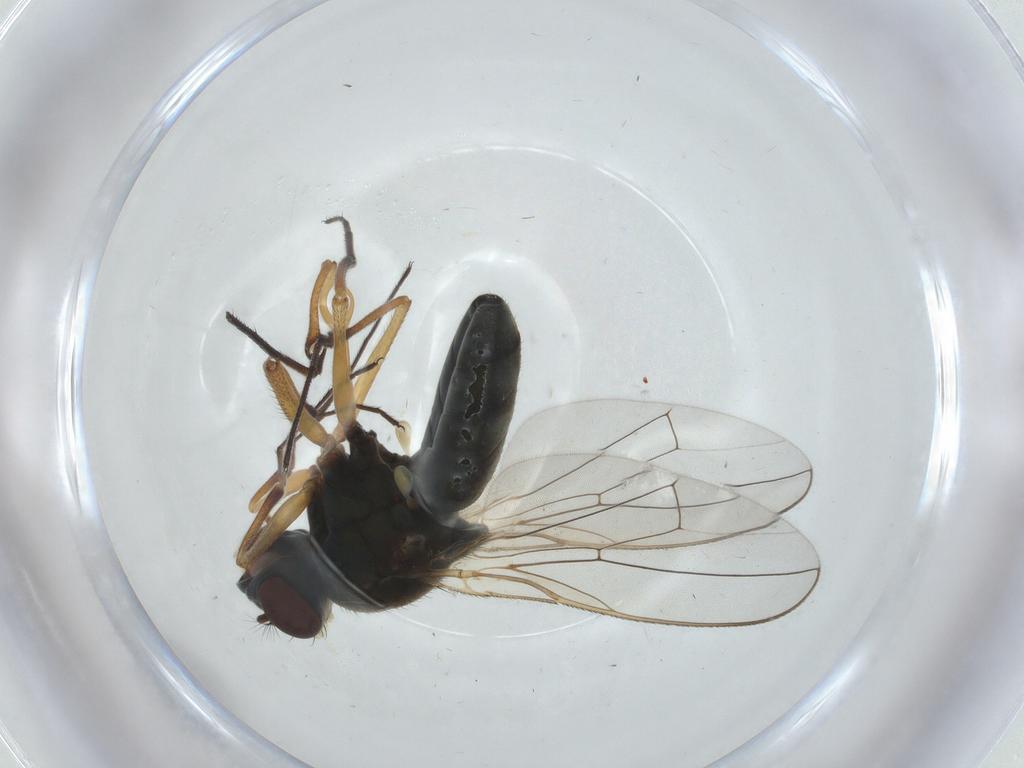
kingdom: Animalia
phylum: Arthropoda
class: Insecta
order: Diptera
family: Ephydridae
